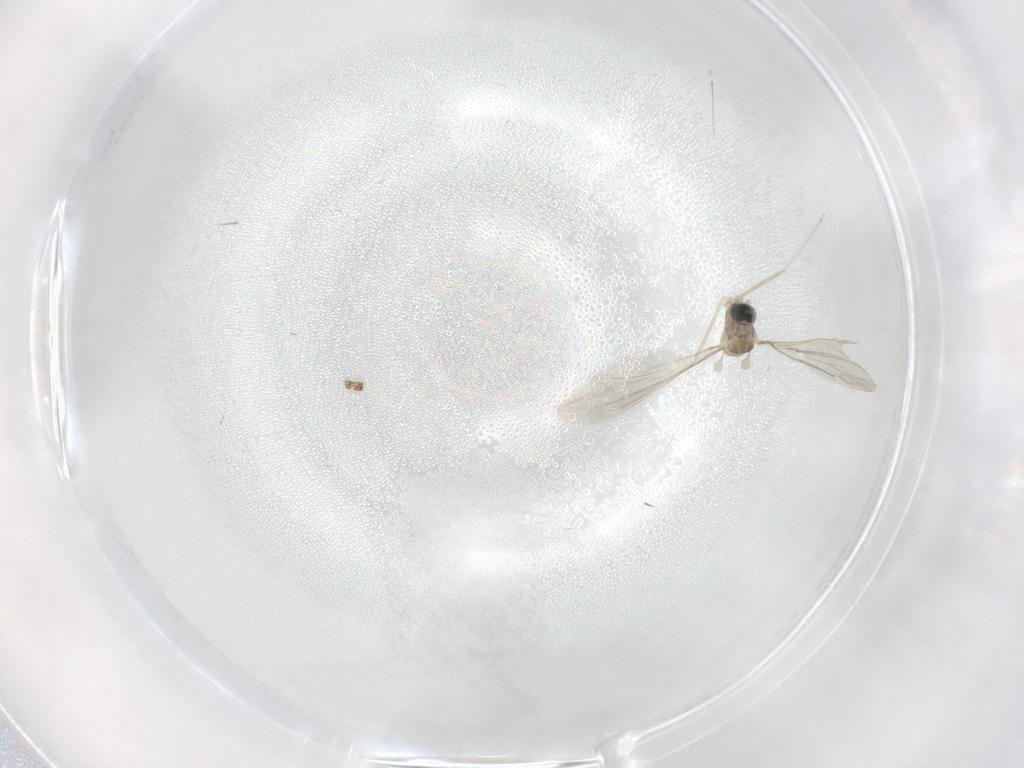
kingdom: Animalia
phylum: Arthropoda
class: Insecta
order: Diptera
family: Cecidomyiidae
